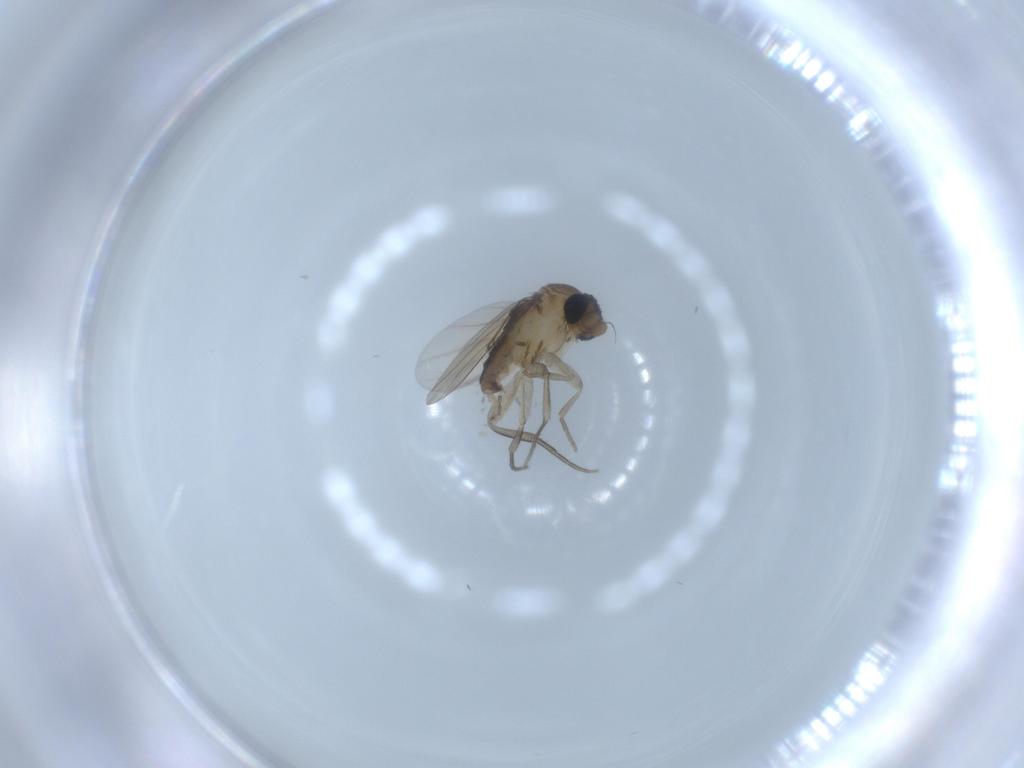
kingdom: Animalia
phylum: Arthropoda
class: Insecta
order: Diptera
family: Phoridae
